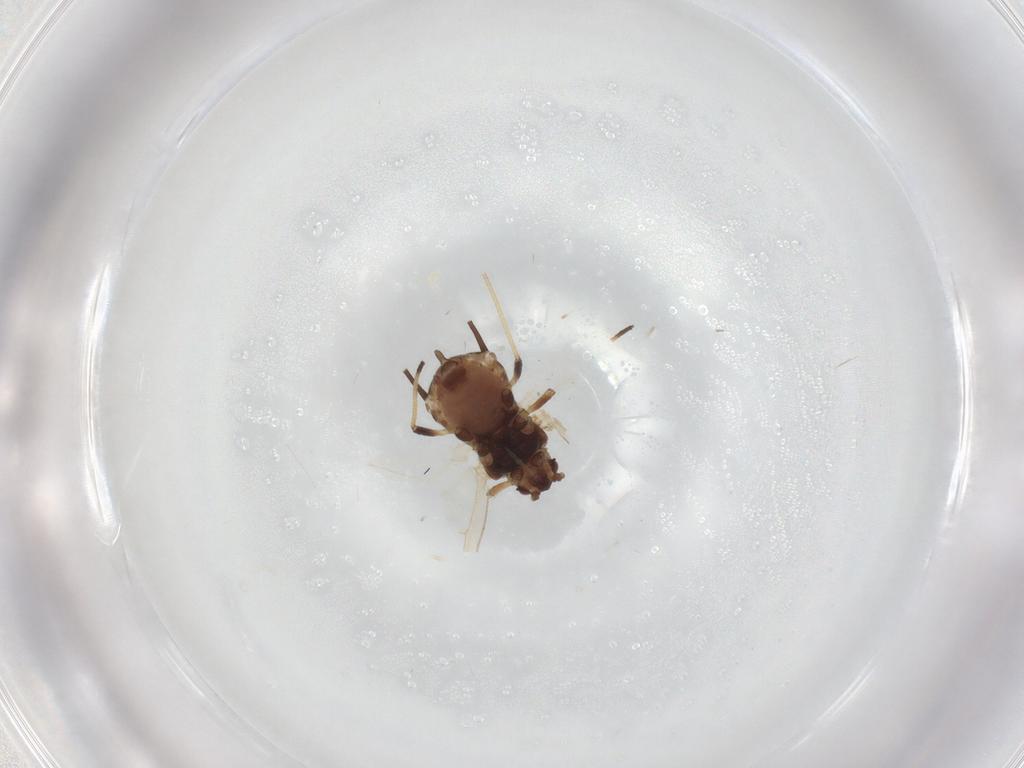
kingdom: Animalia
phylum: Arthropoda
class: Insecta
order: Hemiptera
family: Aphididae
